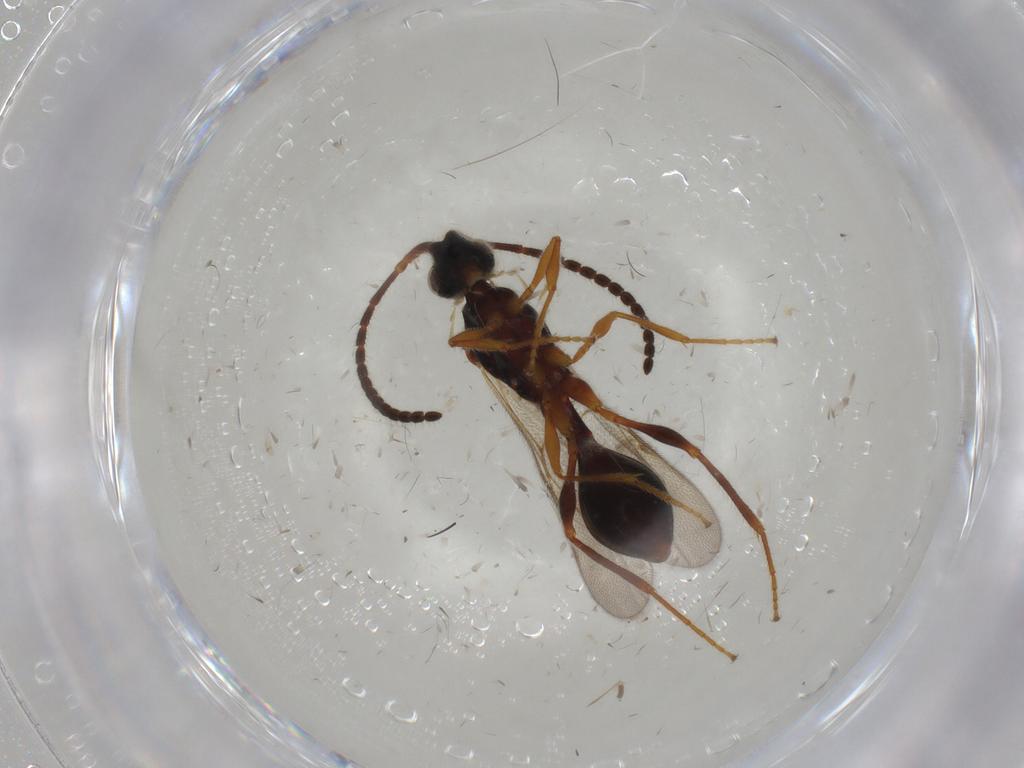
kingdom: Animalia
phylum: Arthropoda
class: Insecta
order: Hymenoptera
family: Diapriidae
